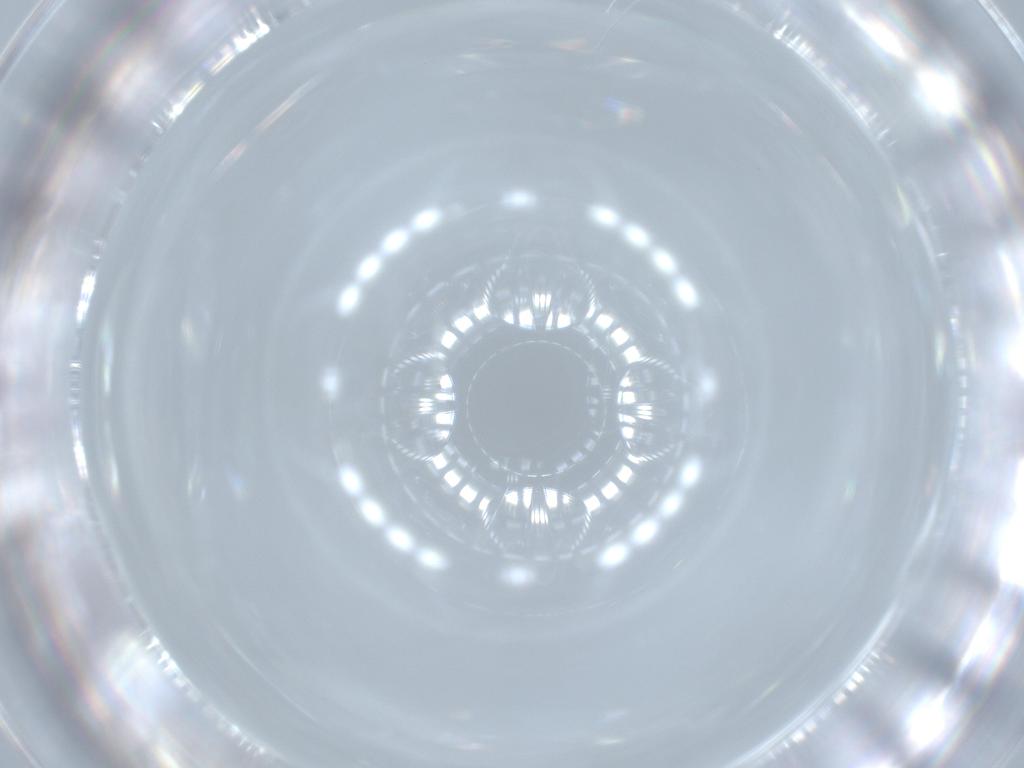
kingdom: Animalia
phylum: Arthropoda
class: Insecta
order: Coleoptera
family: Chrysomelidae
